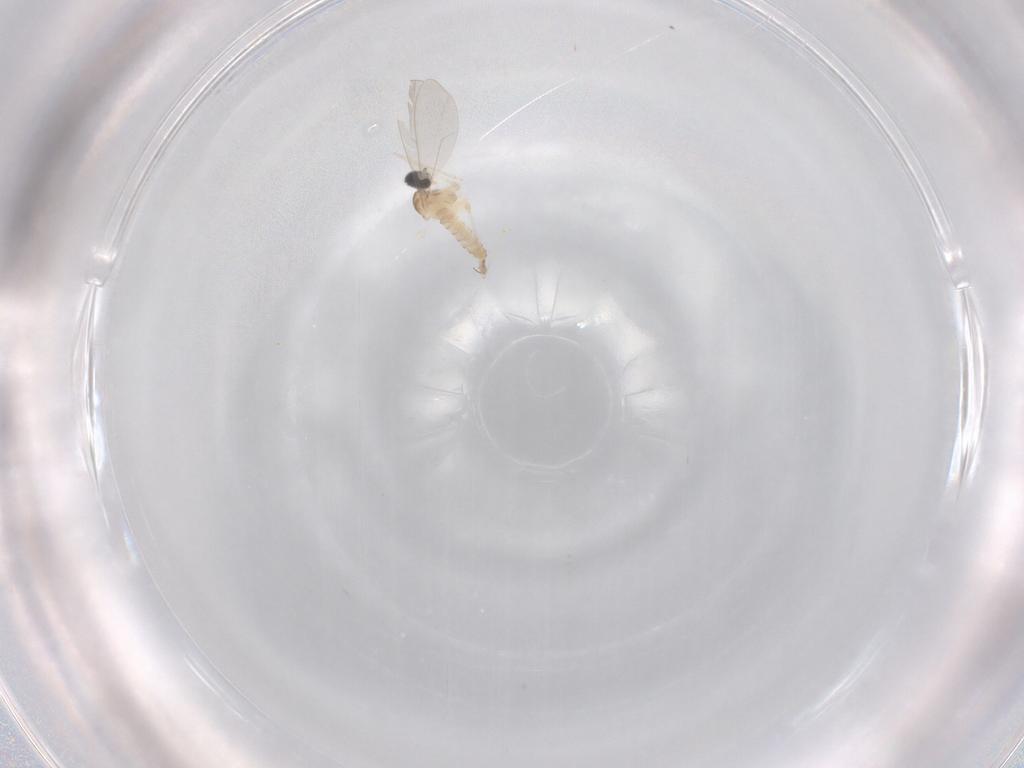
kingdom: Animalia
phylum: Arthropoda
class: Insecta
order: Diptera
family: Cecidomyiidae
